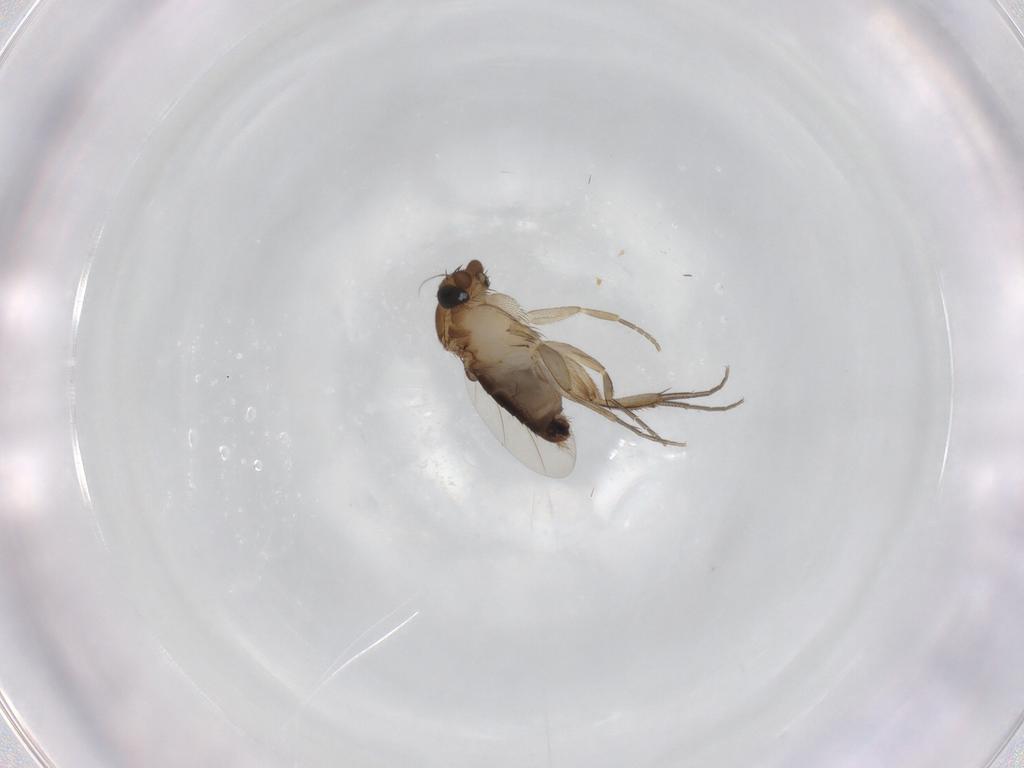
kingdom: Animalia
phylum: Arthropoda
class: Insecta
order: Diptera
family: Phoridae
